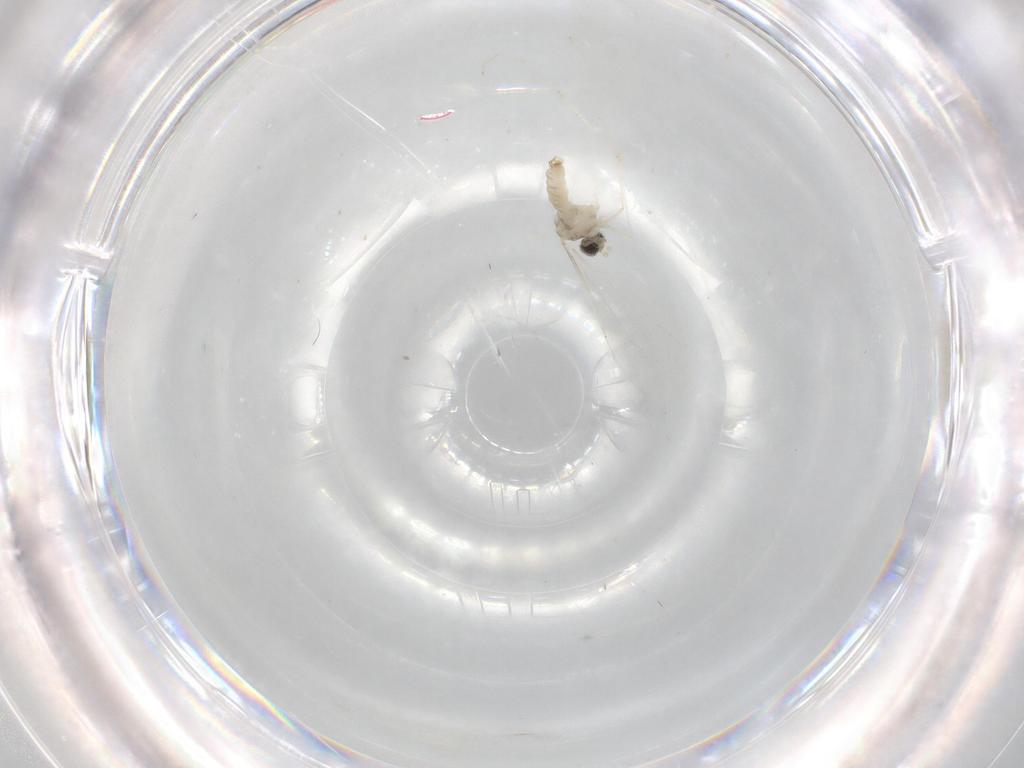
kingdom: Animalia
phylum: Arthropoda
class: Insecta
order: Diptera
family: Cecidomyiidae
